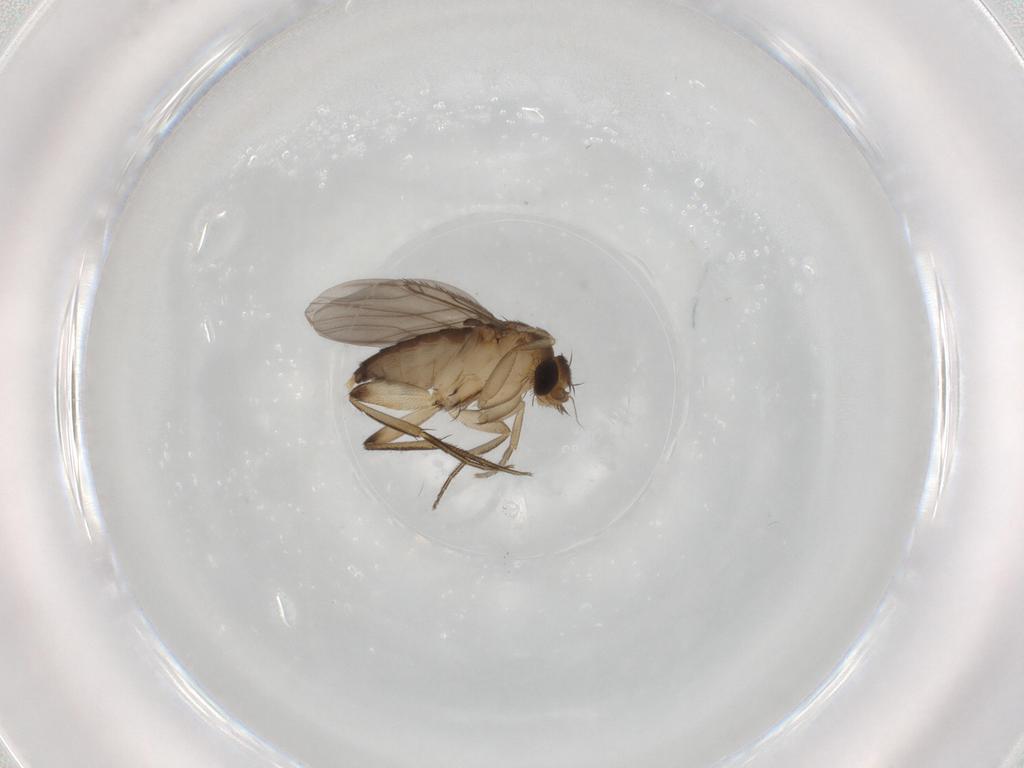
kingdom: Animalia
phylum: Arthropoda
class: Insecta
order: Diptera
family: Phoridae
